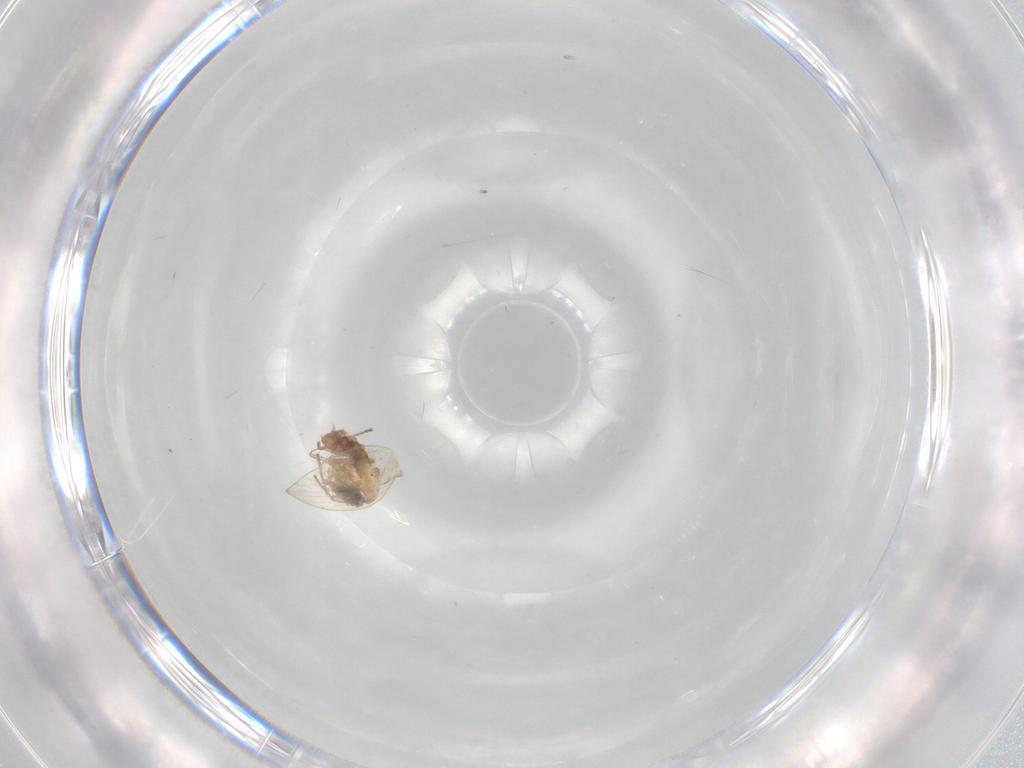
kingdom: Animalia
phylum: Arthropoda
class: Insecta
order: Diptera
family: Psychodidae
